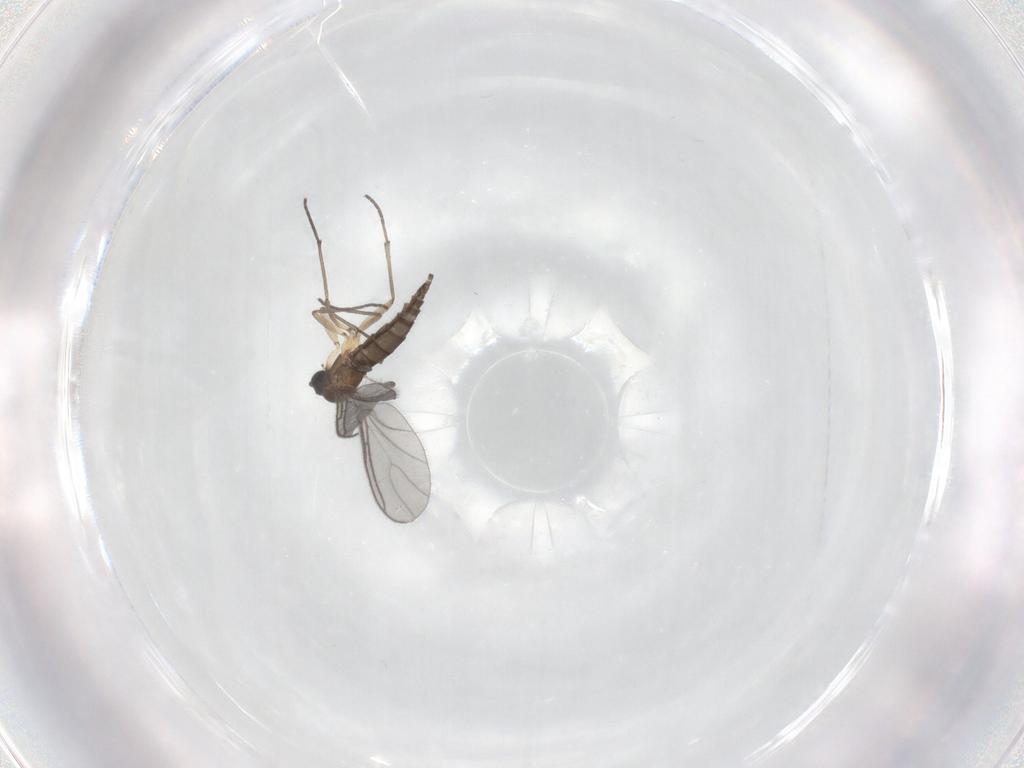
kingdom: Animalia
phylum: Arthropoda
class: Insecta
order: Diptera
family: Sciaridae
